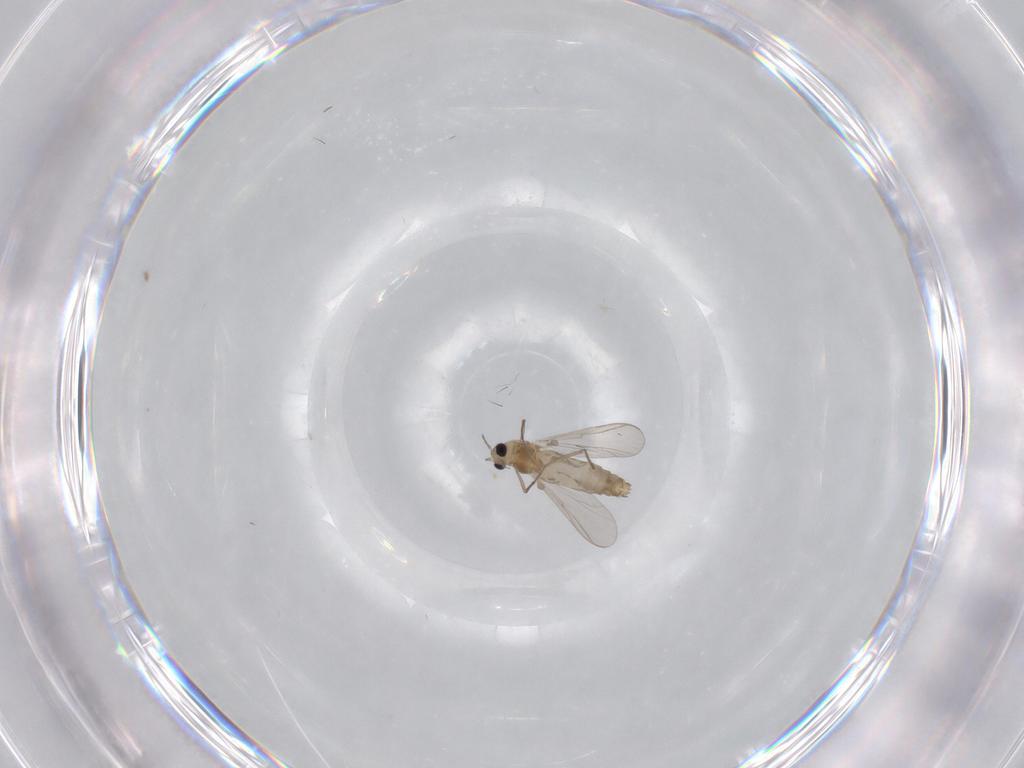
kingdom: Animalia
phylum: Arthropoda
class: Insecta
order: Diptera
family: Chironomidae
